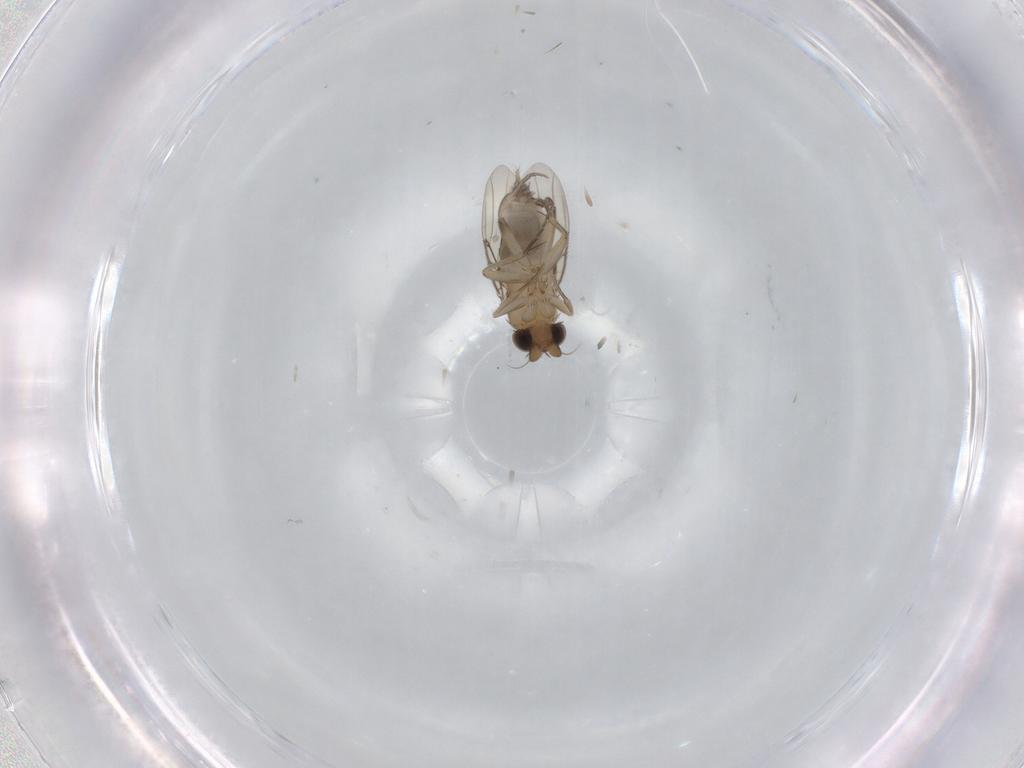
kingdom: Animalia
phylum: Arthropoda
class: Insecta
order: Diptera
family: Phoridae
